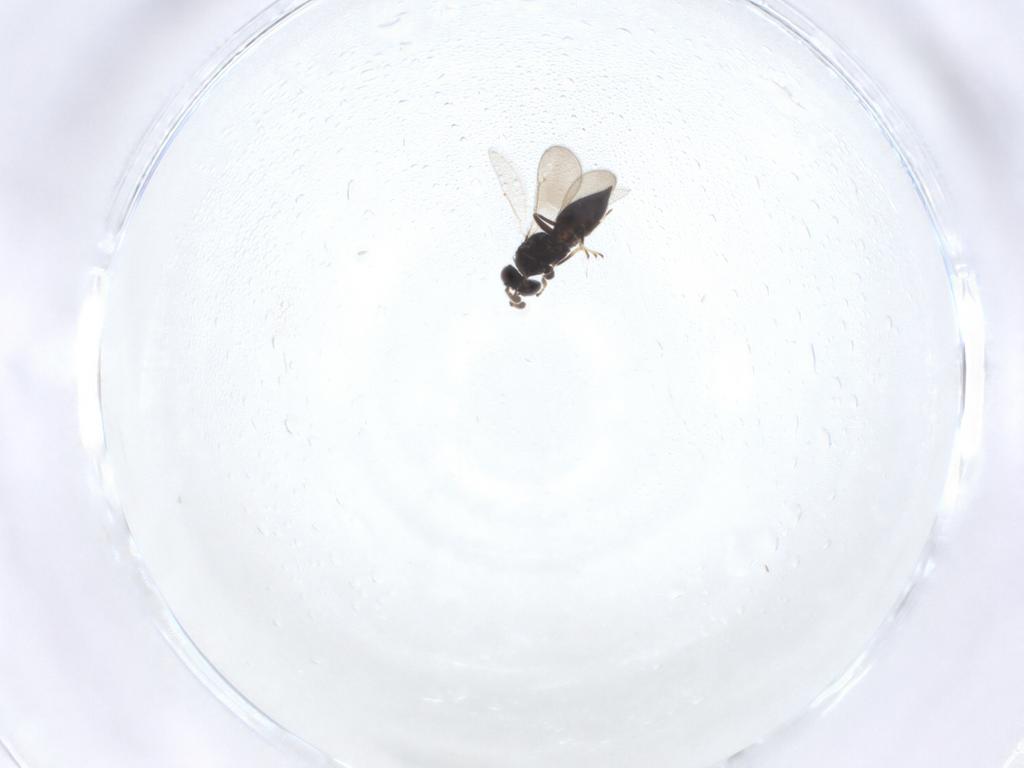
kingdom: Animalia
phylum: Arthropoda
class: Insecta
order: Hymenoptera
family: Eulophidae
